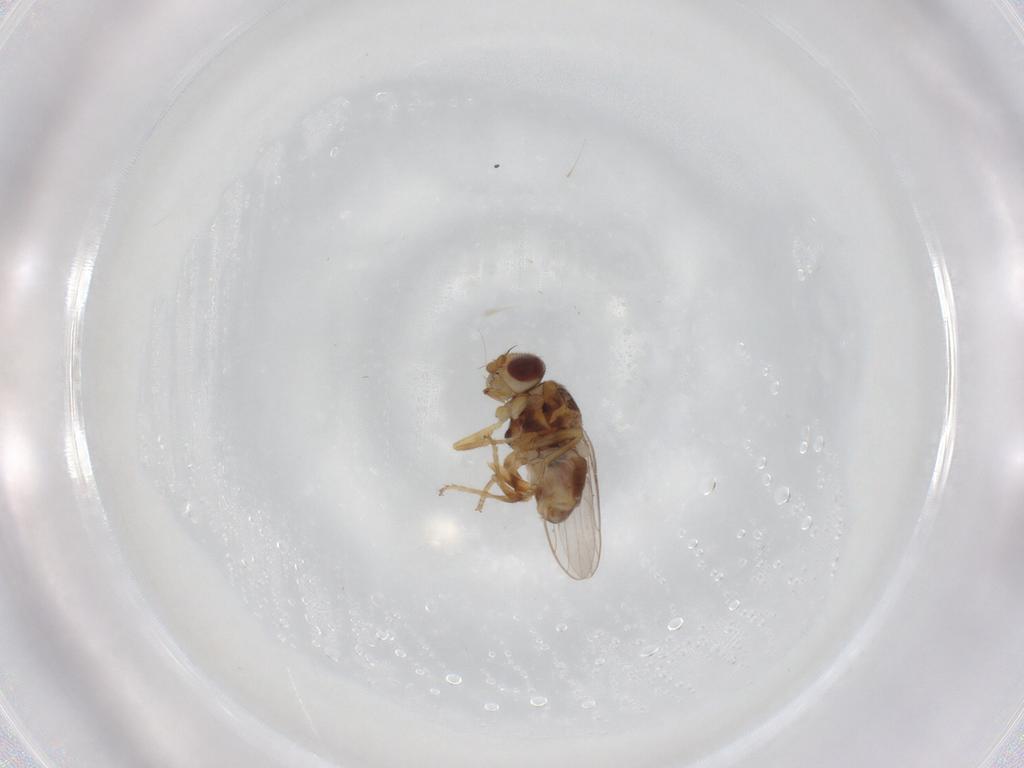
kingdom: Animalia
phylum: Arthropoda
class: Insecta
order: Diptera
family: Chloropidae
